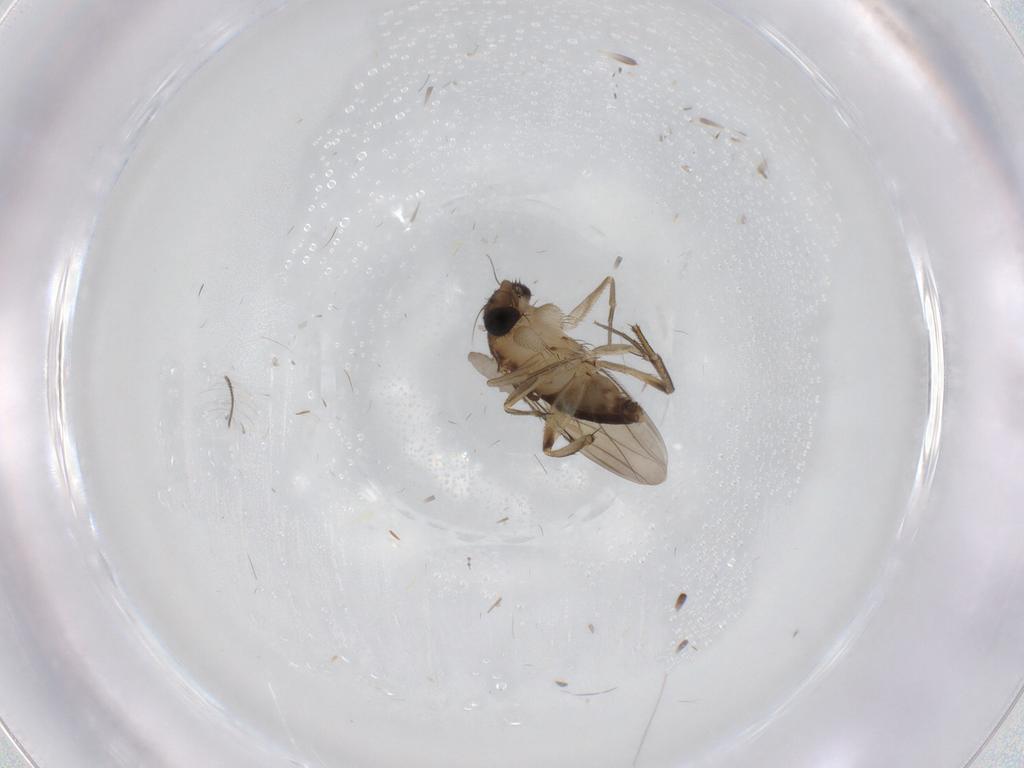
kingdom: Animalia
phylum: Arthropoda
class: Insecta
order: Diptera
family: Phoridae
